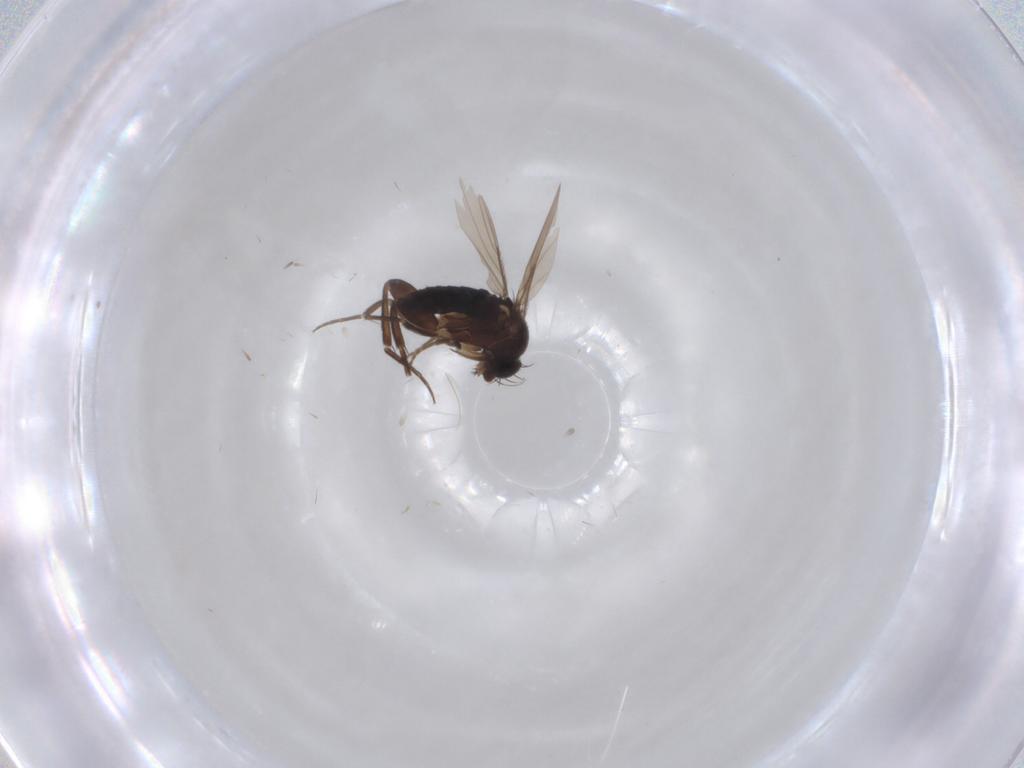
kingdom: Animalia
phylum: Arthropoda
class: Insecta
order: Diptera
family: Phoridae
